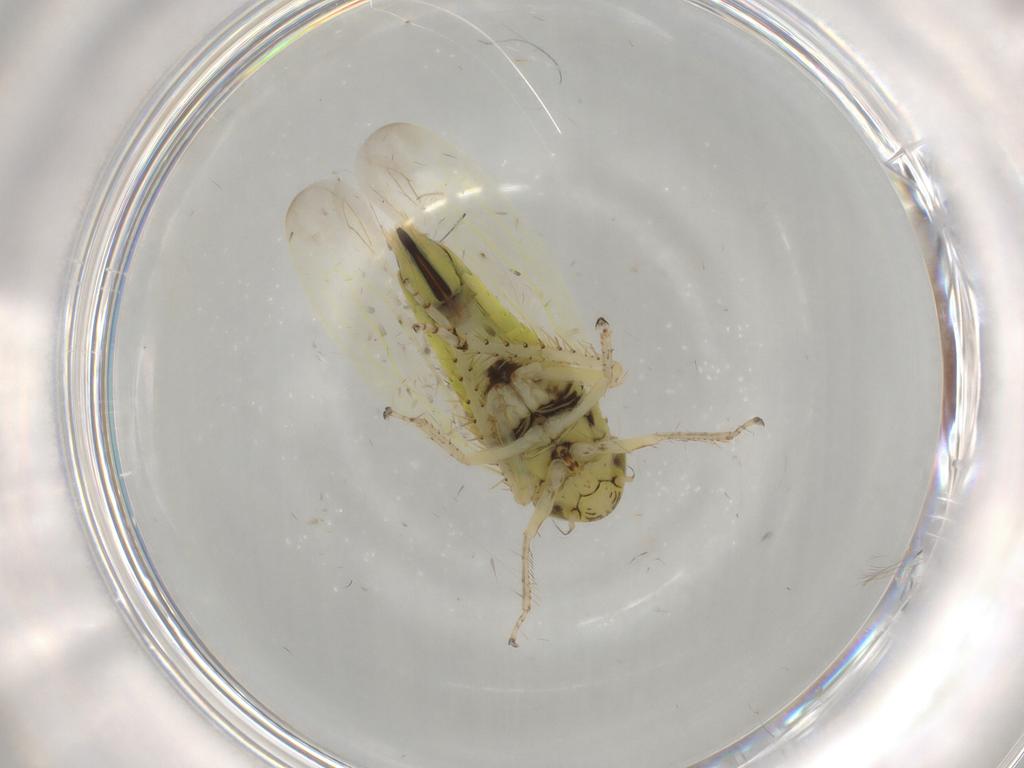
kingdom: Animalia
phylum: Arthropoda
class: Insecta
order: Hemiptera
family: Cicadellidae
